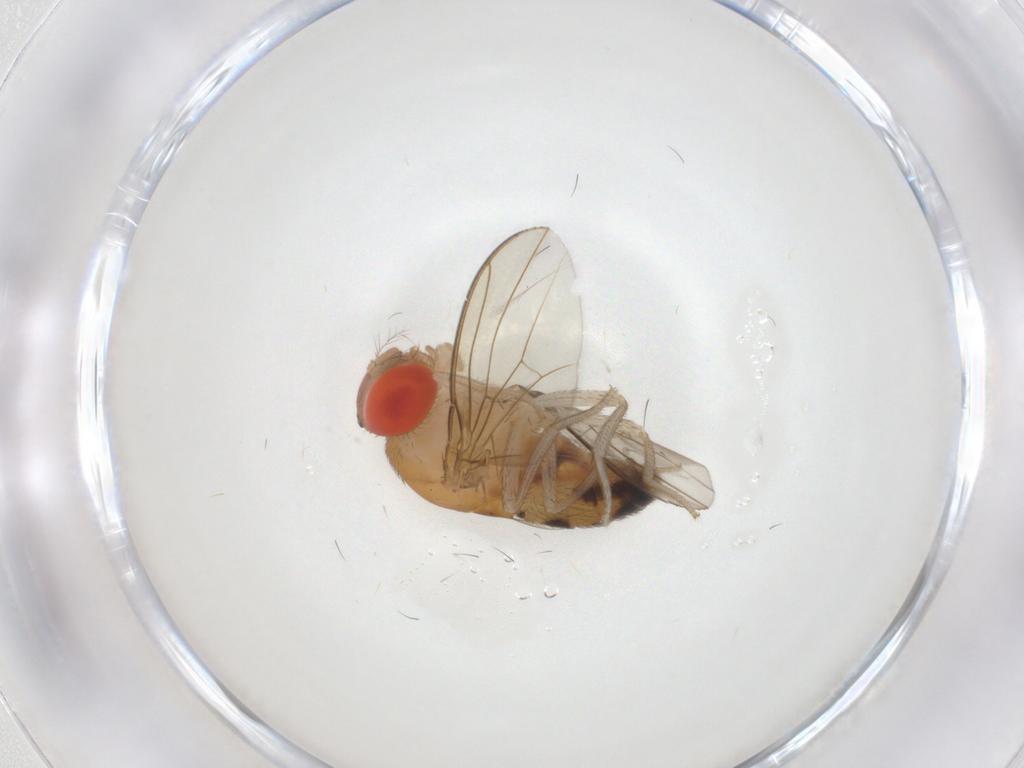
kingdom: Animalia
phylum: Arthropoda
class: Insecta
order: Diptera
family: Drosophilidae
